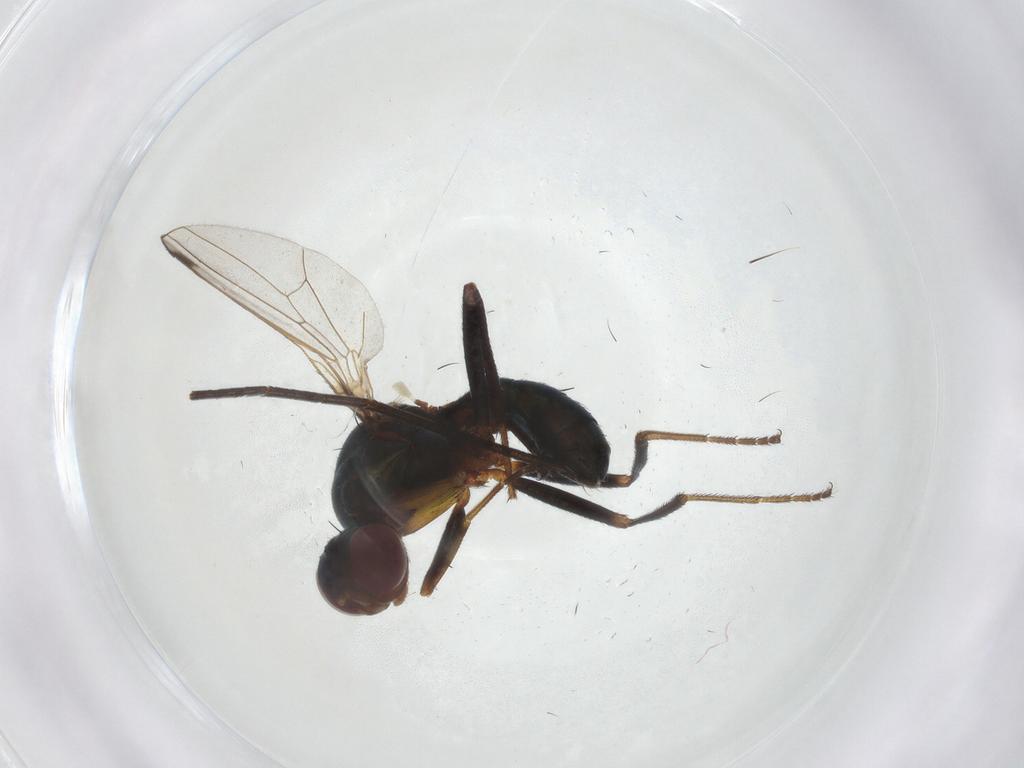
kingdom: Animalia
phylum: Arthropoda
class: Insecta
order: Diptera
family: Sepsidae
